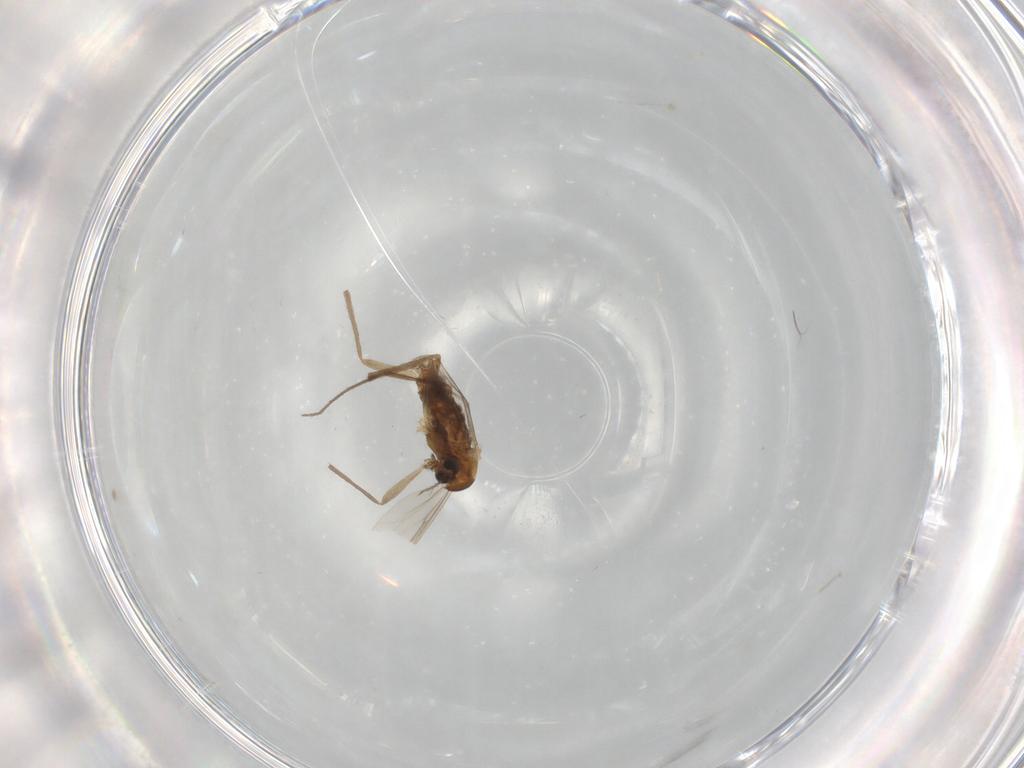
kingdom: Animalia
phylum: Arthropoda
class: Insecta
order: Diptera
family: Chironomidae
